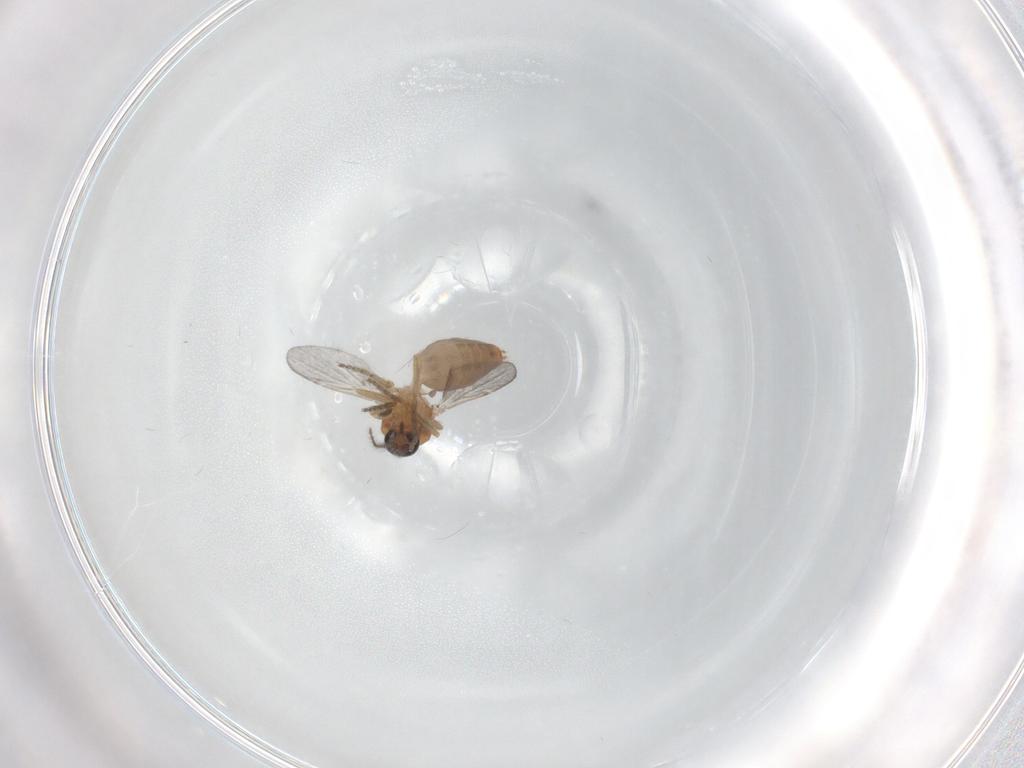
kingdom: Animalia
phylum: Arthropoda
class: Insecta
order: Diptera
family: Ceratopogonidae
